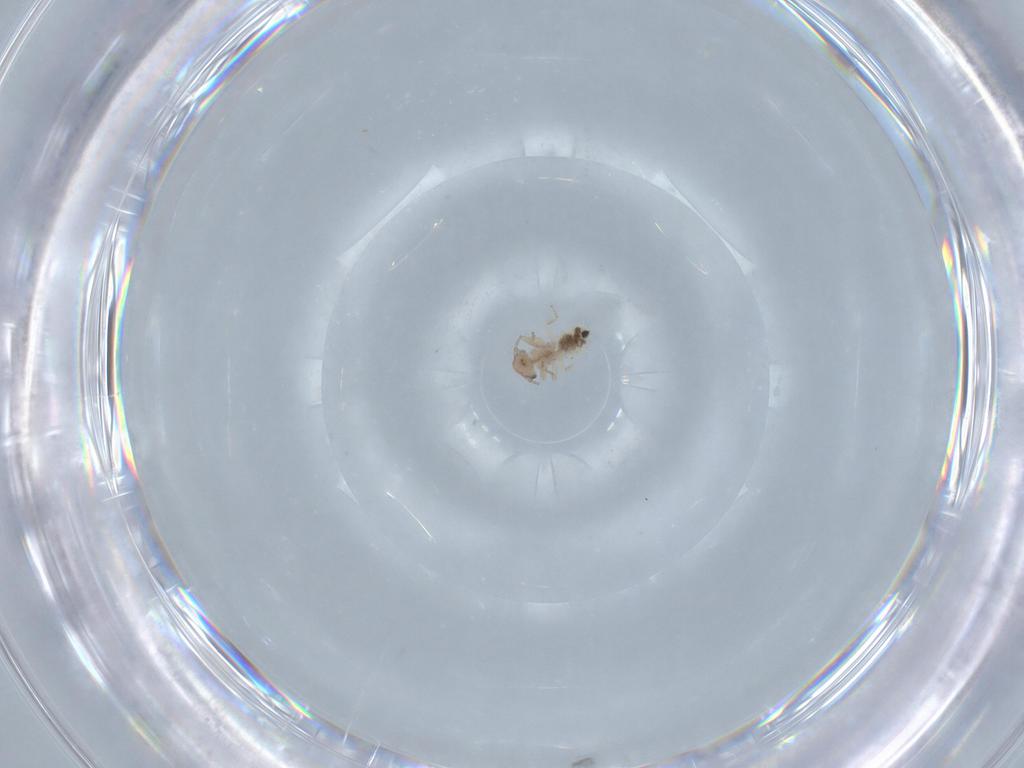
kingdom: Animalia
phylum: Arthropoda
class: Insecta
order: Psocodea
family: Lepidopsocidae
